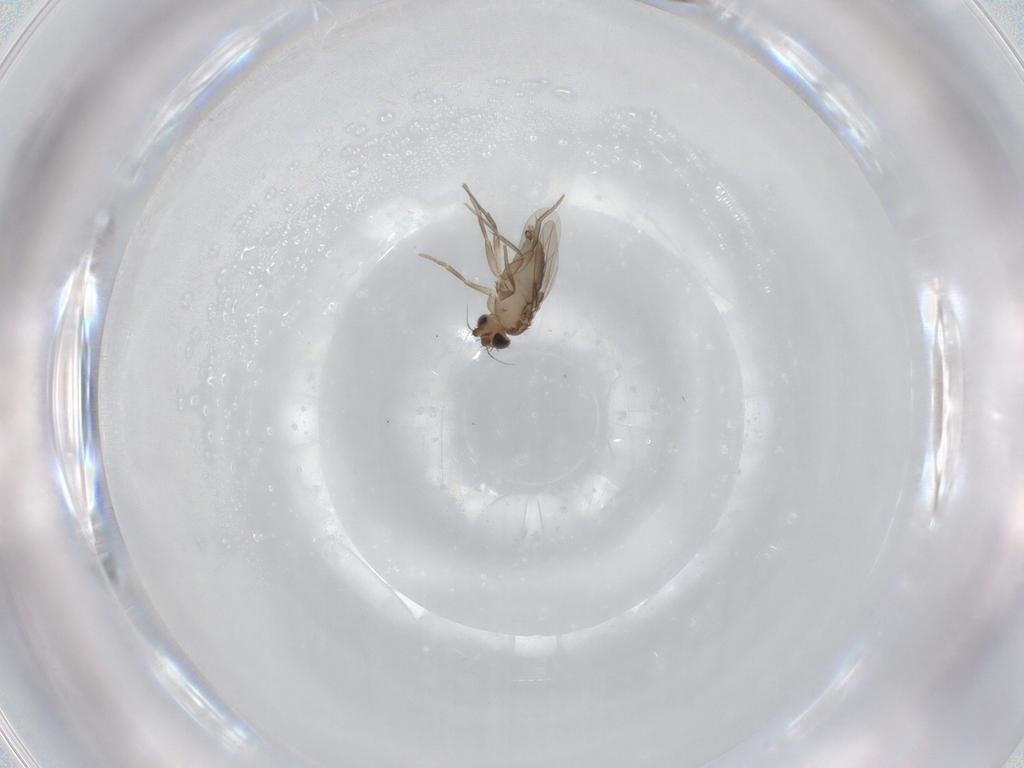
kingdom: Animalia
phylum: Arthropoda
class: Insecta
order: Diptera
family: Phoridae
